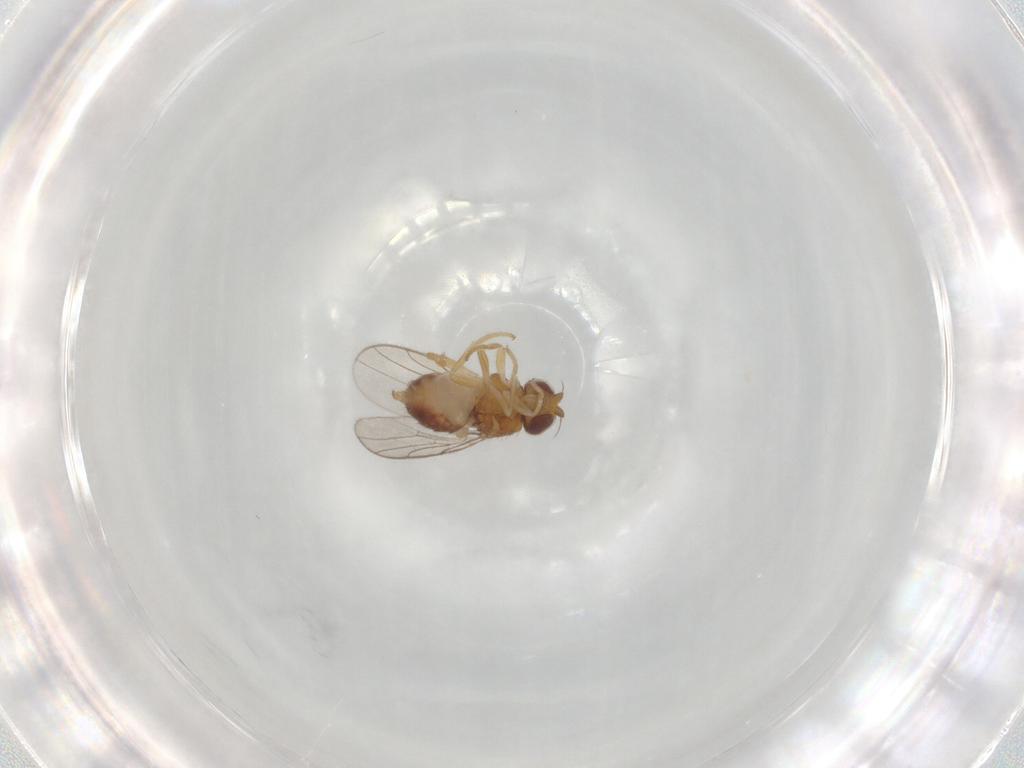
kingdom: Animalia
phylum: Arthropoda
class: Insecta
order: Diptera
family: Chloropidae
